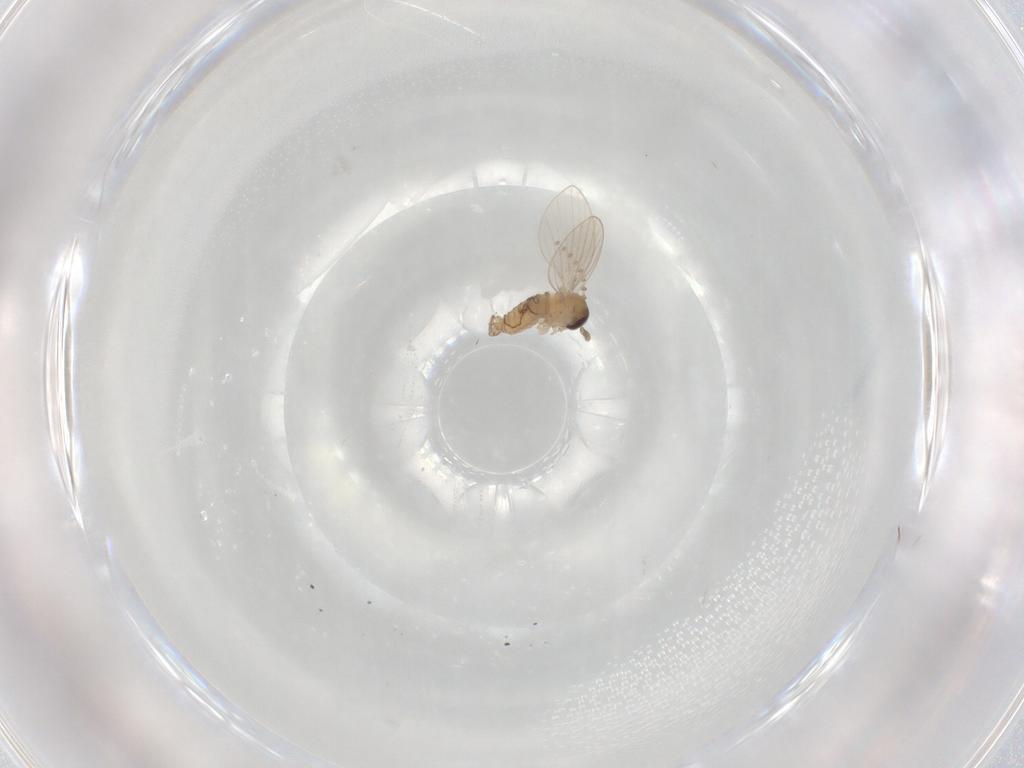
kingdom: Animalia
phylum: Arthropoda
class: Insecta
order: Diptera
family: Psychodidae
